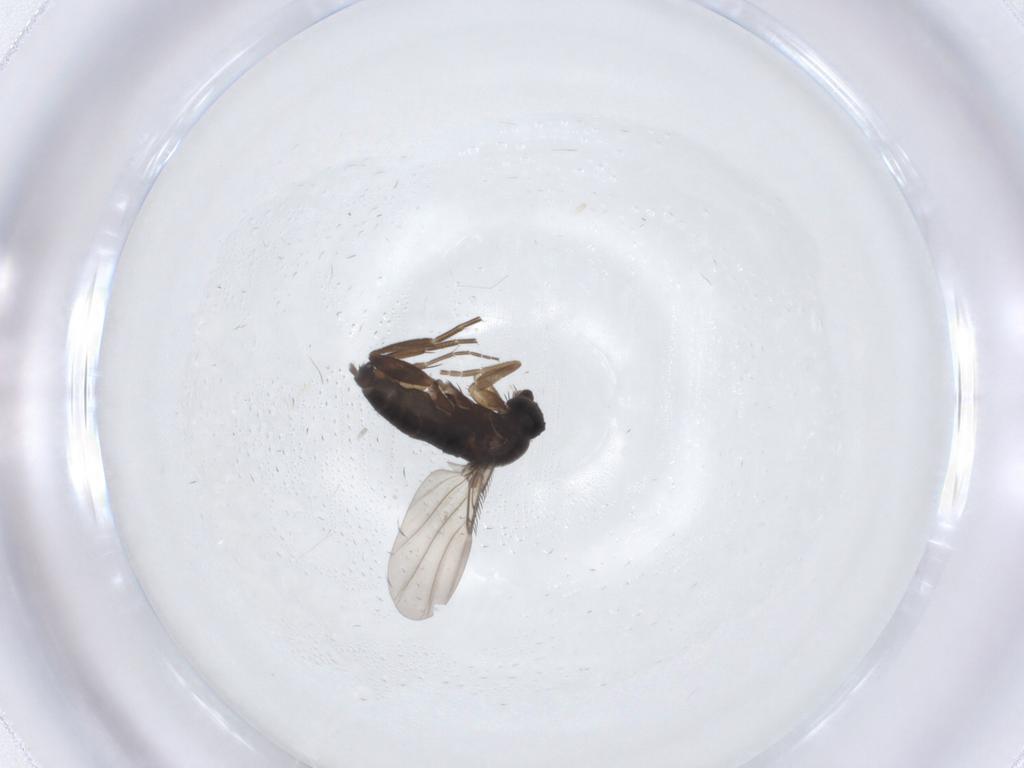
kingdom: Animalia
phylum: Arthropoda
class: Insecta
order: Diptera
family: Phoridae
